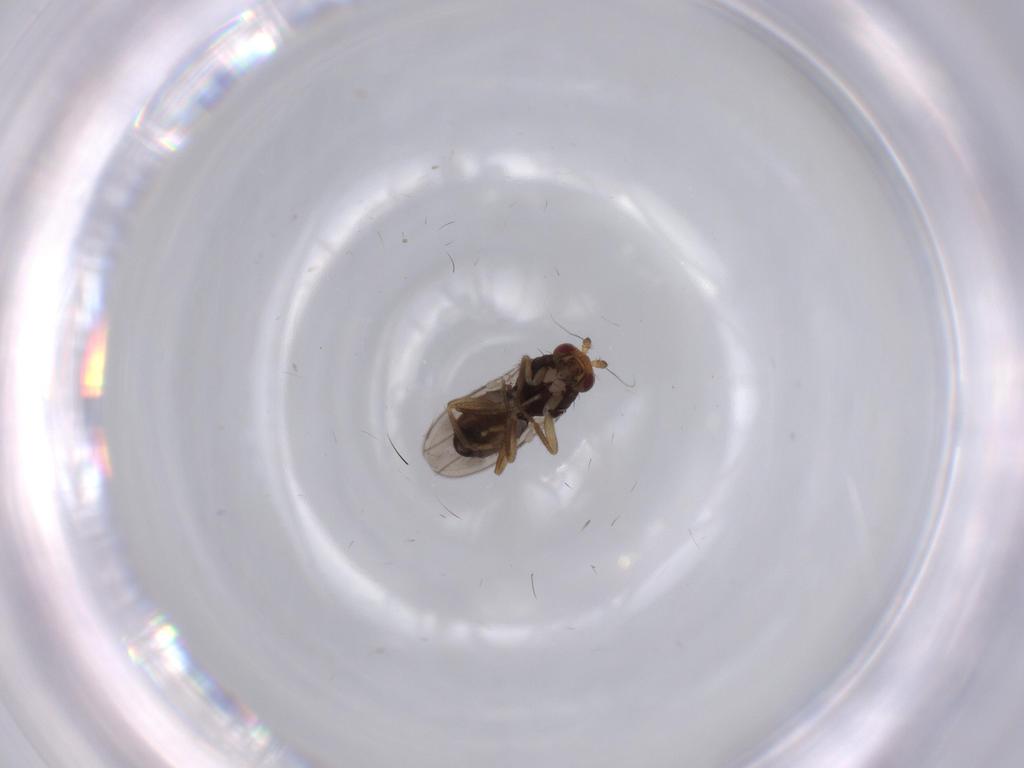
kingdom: Animalia
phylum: Arthropoda
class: Insecta
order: Diptera
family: Sphaeroceridae
